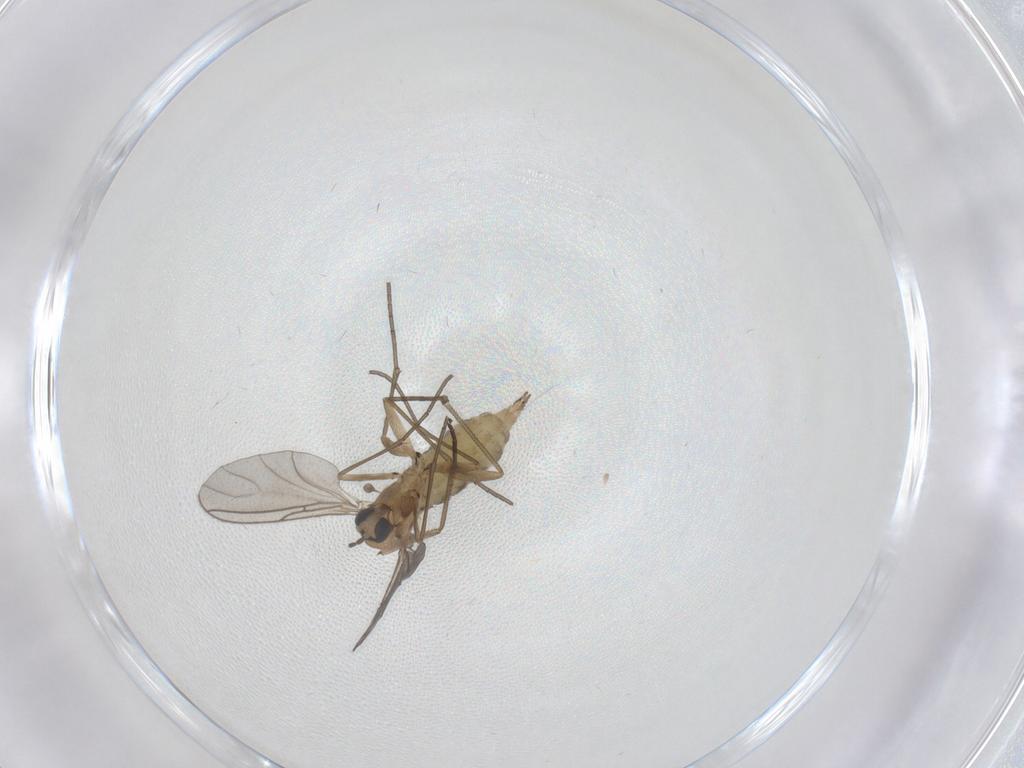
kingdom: Animalia
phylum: Arthropoda
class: Insecta
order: Diptera
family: Sciaridae
